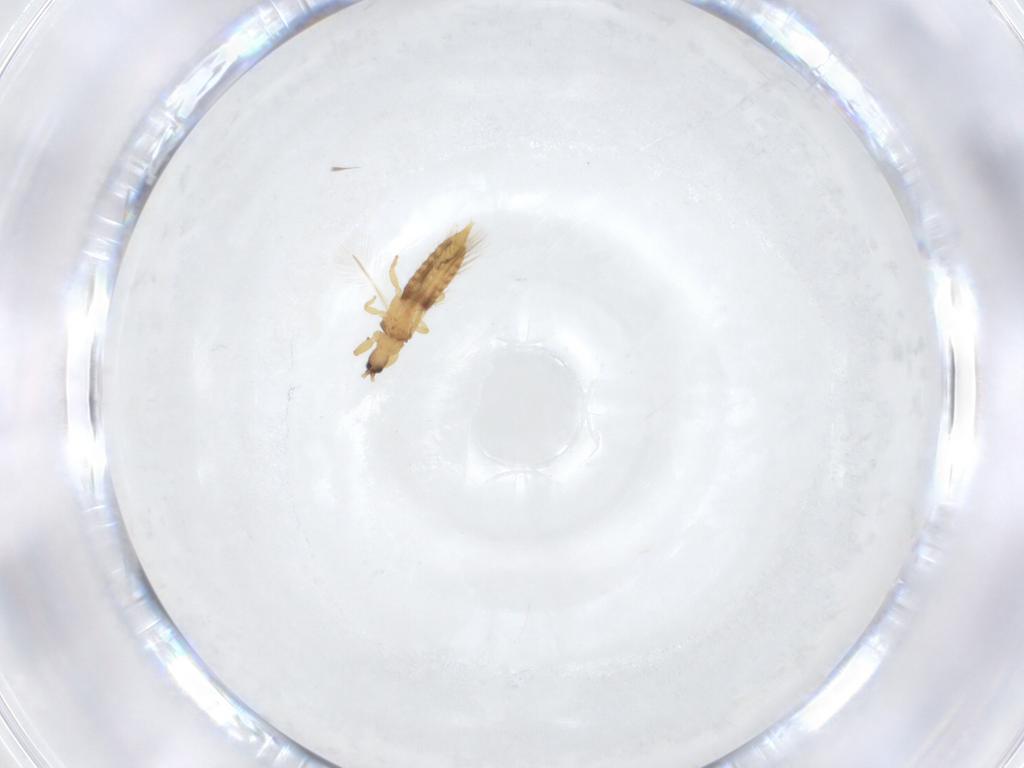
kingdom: Animalia
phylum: Arthropoda
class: Insecta
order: Thysanoptera
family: Phlaeothripidae
